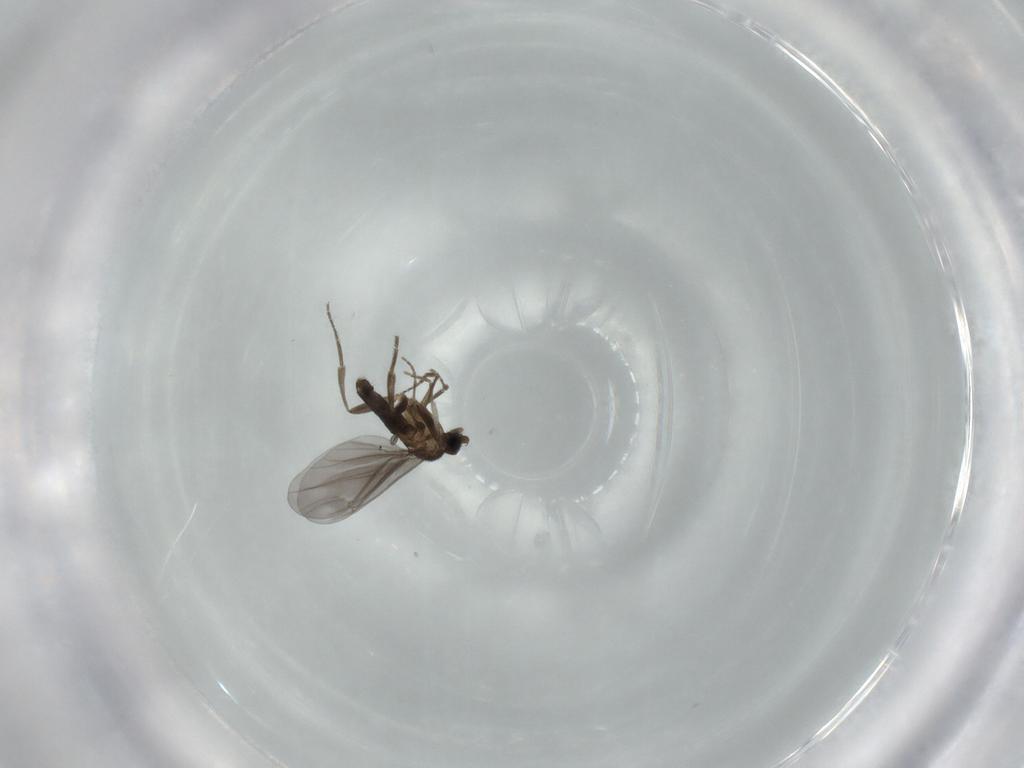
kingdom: Animalia
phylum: Arthropoda
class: Insecta
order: Diptera
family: Phoridae
